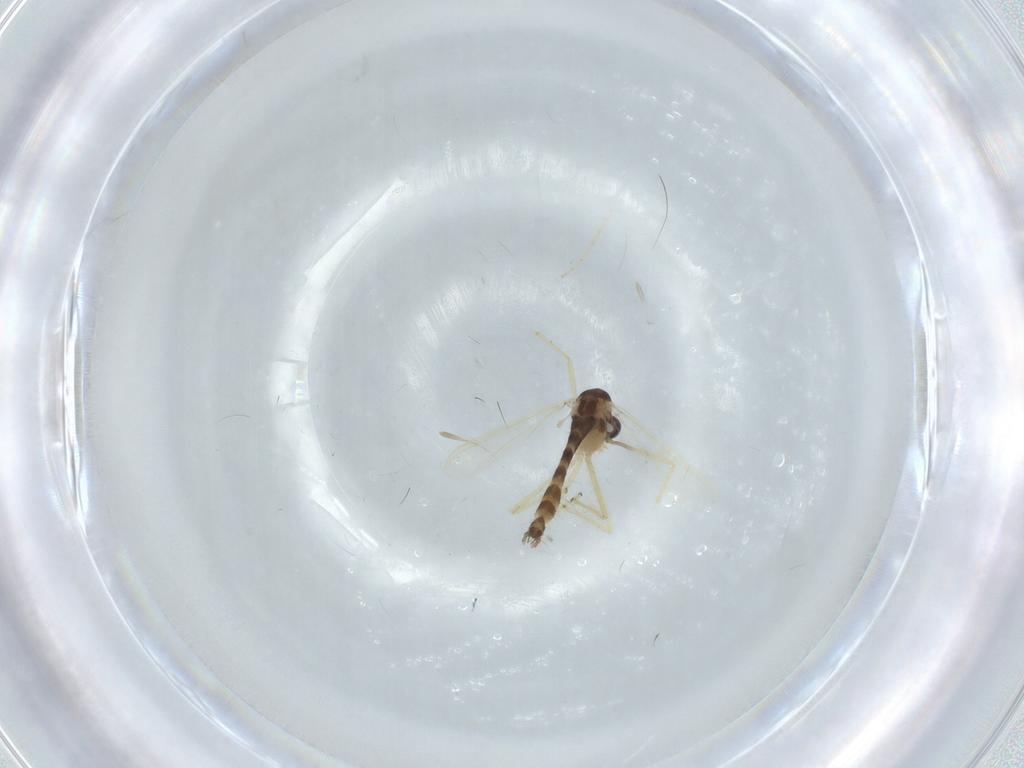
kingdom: Animalia
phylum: Arthropoda
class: Insecta
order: Diptera
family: Chironomidae
